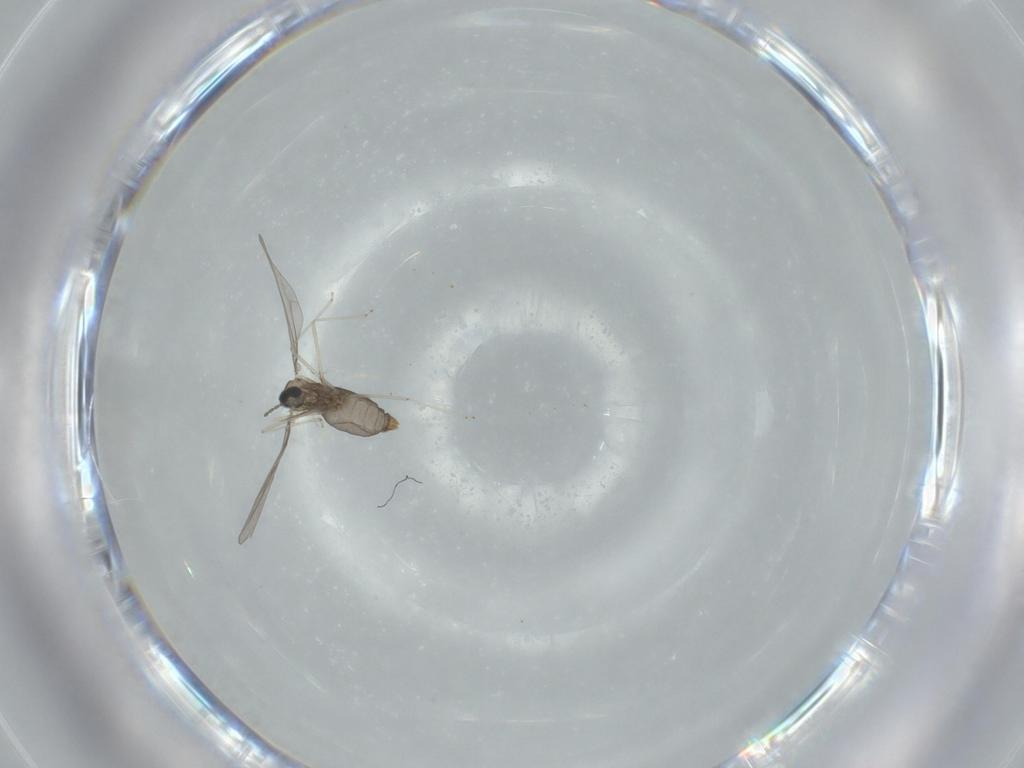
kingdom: Animalia
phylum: Arthropoda
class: Insecta
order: Diptera
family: Cecidomyiidae
